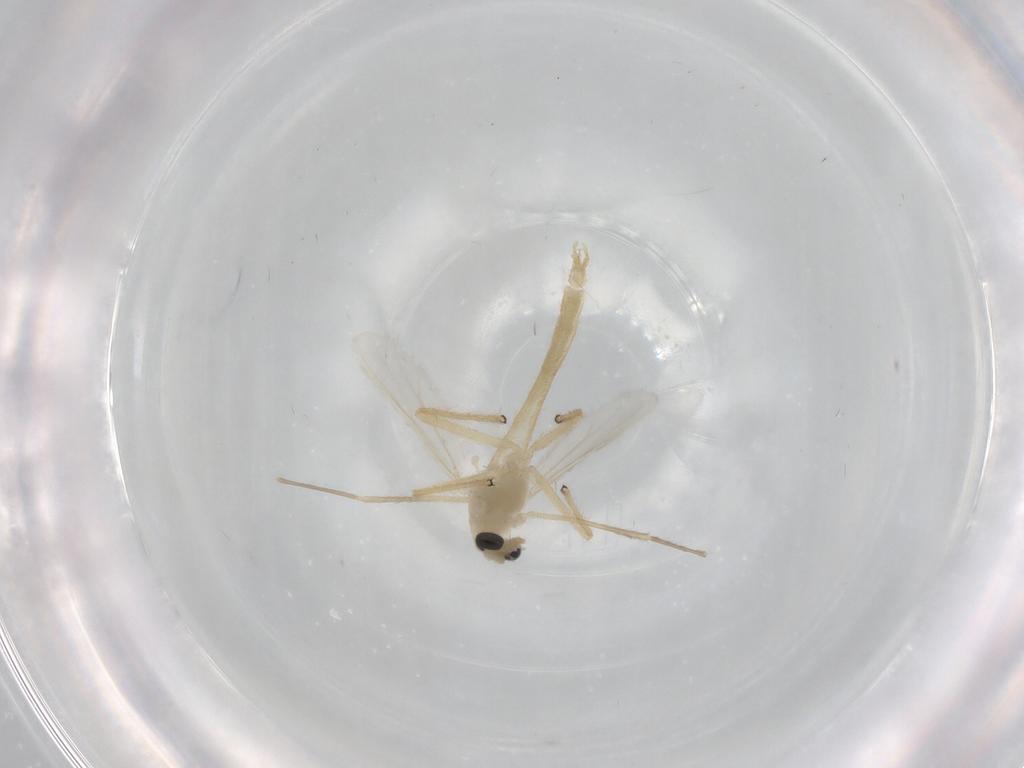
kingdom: Animalia
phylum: Arthropoda
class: Insecta
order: Diptera
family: Chironomidae
